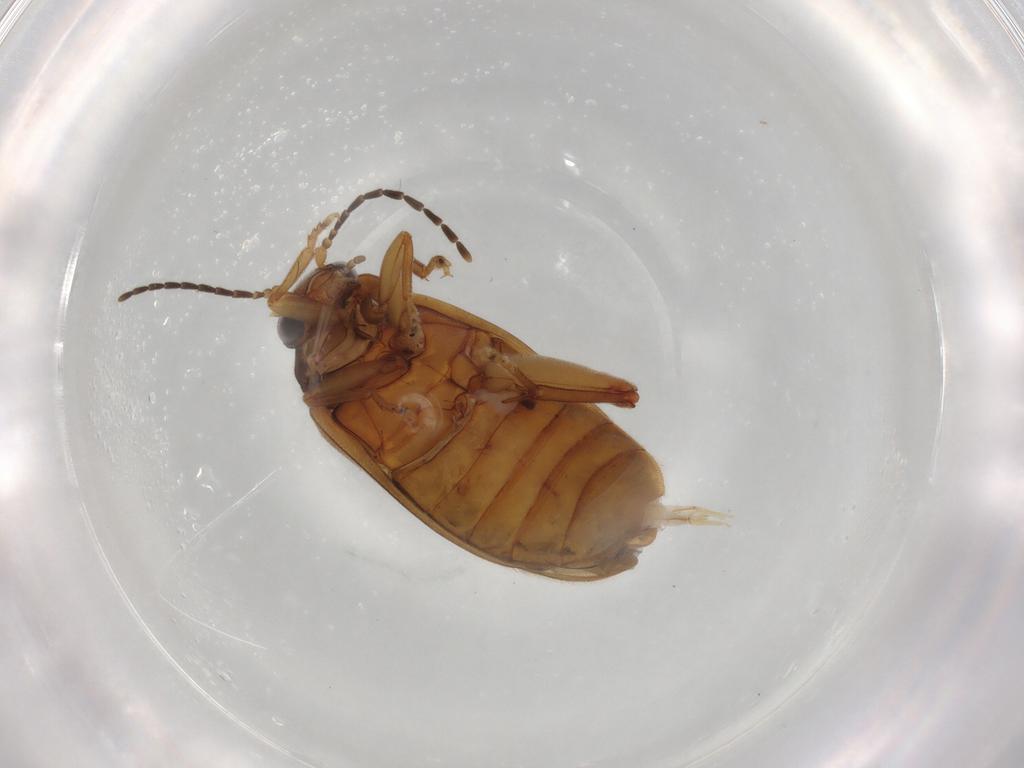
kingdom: Animalia
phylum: Arthropoda
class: Insecta
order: Coleoptera
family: Scirtidae
